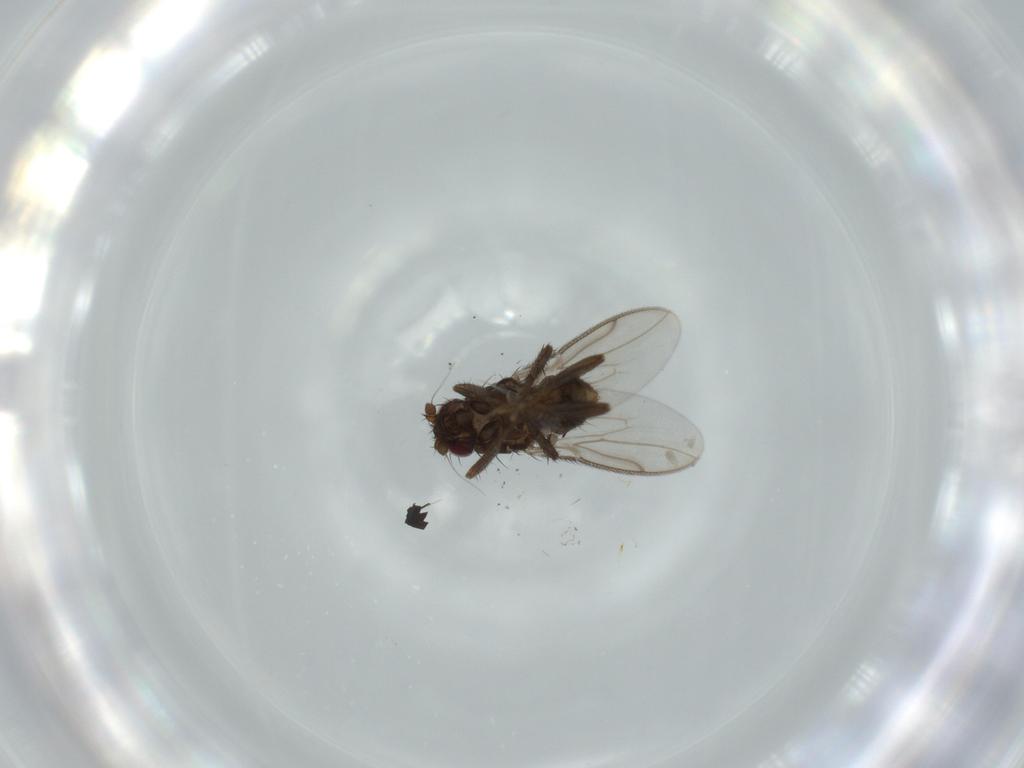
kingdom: Animalia
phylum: Arthropoda
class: Insecta
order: Diptera
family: Sphaeroceridae
